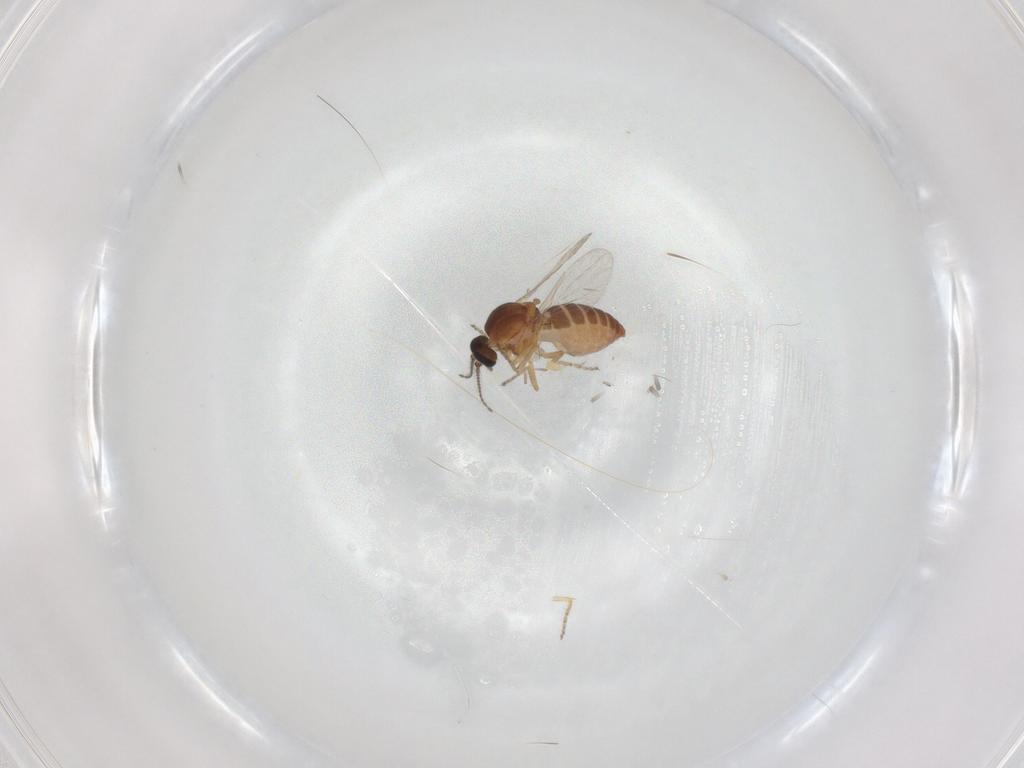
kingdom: Animalia
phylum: Arthropoda
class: Insecta
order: Diptera
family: Ceratopogonidae
